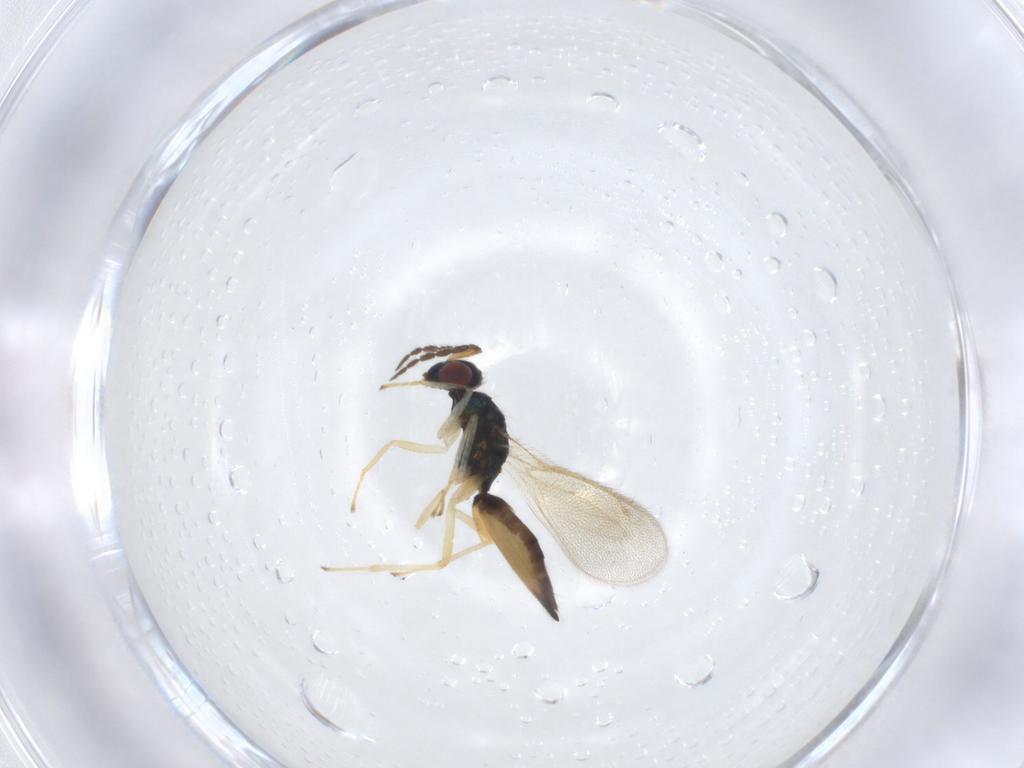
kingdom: Animalia
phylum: Arthropoda
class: Insecta
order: Hymenoptera
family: Eulophidae
